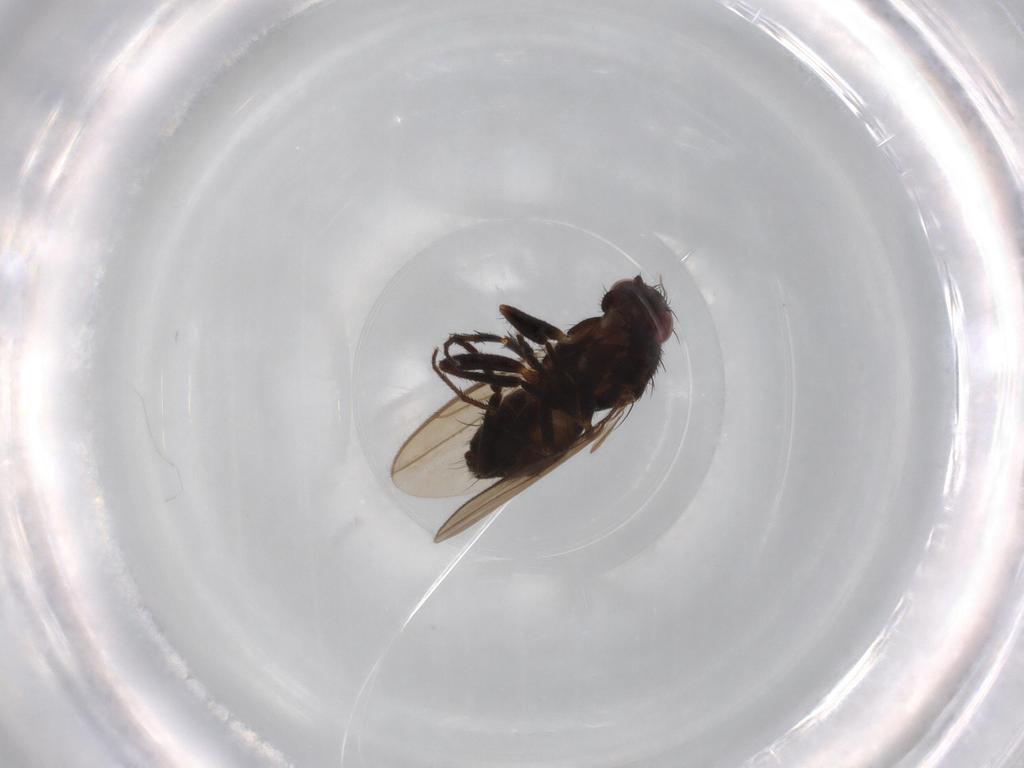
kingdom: Animalia
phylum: Arthropoda
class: Insecta
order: Diptera
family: Sphaeroceridae
